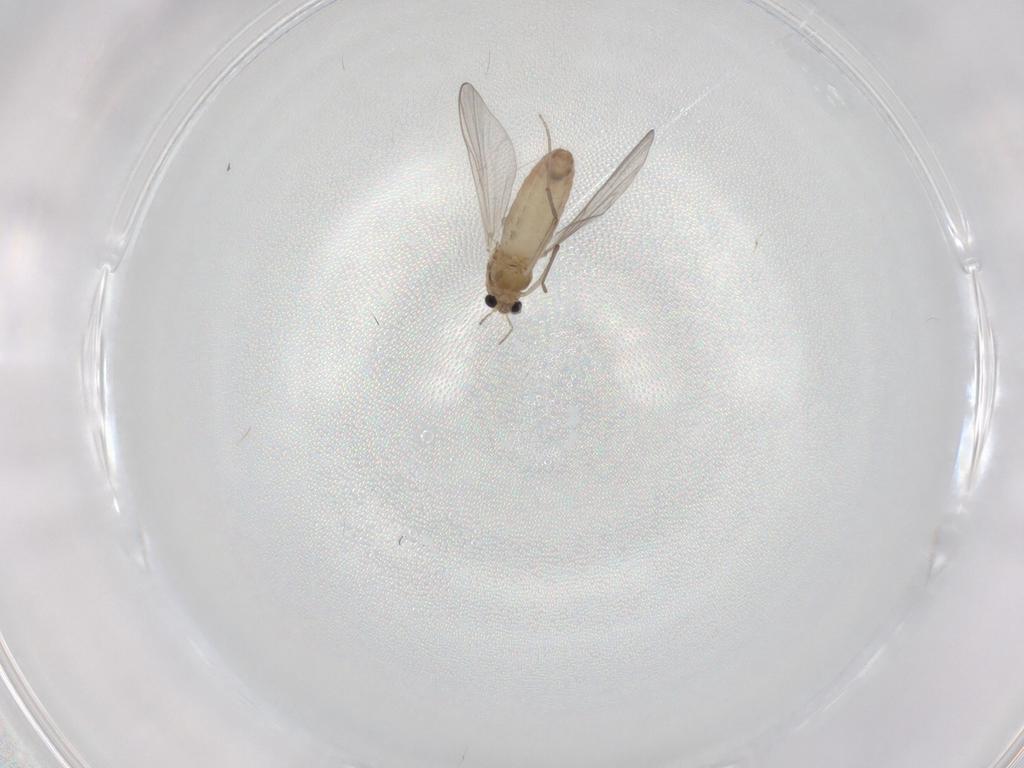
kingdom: Animalia
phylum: Arthropoda
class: Insecta
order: Diptera
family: Chironomidae
